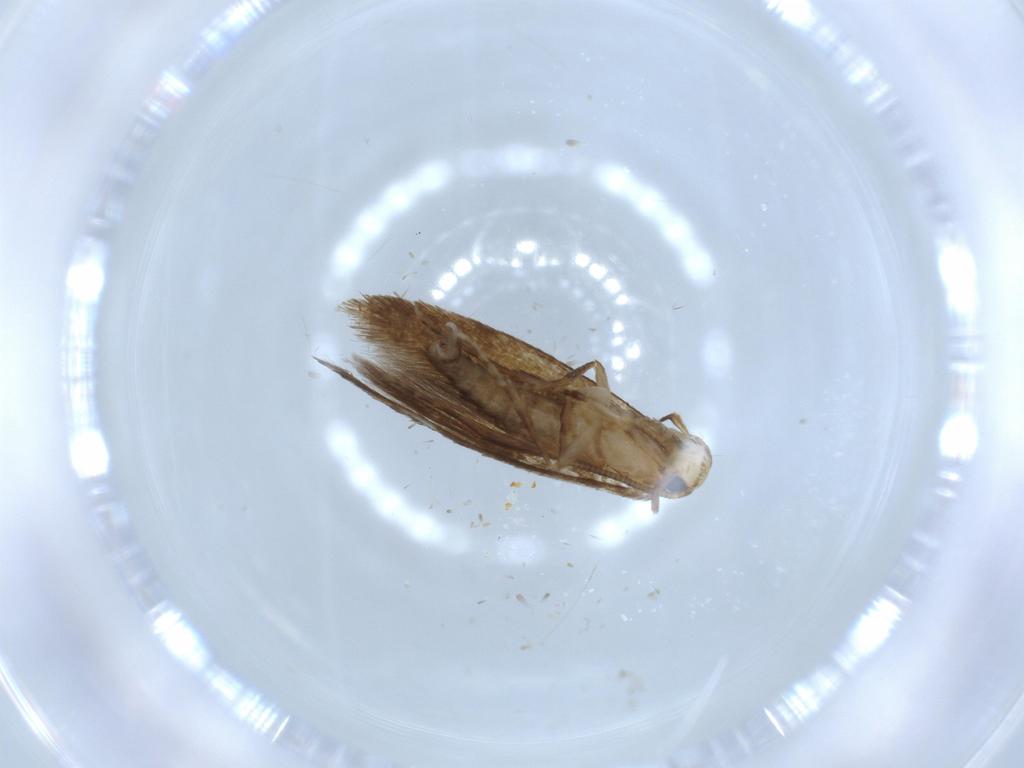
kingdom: Animalia
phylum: Arthropoda
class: Insecta
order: Lepidoptera
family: Tineidae
